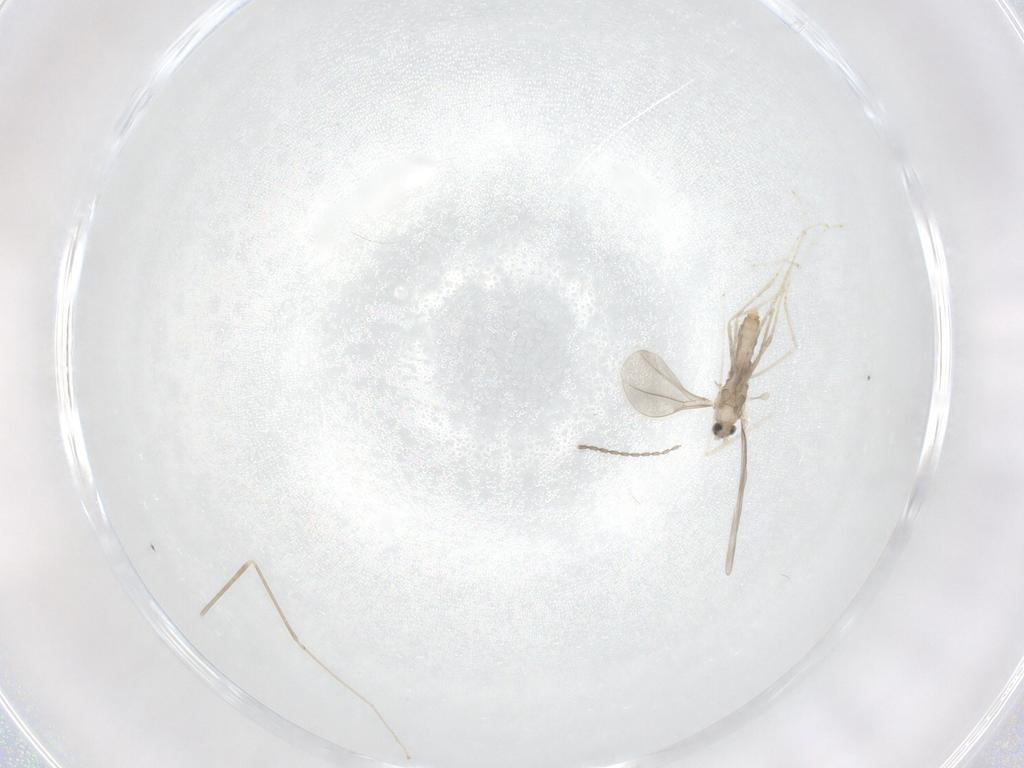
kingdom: Animalia
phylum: Arthropoda
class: Insecta
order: Diptera
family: Cecidomyiidae
